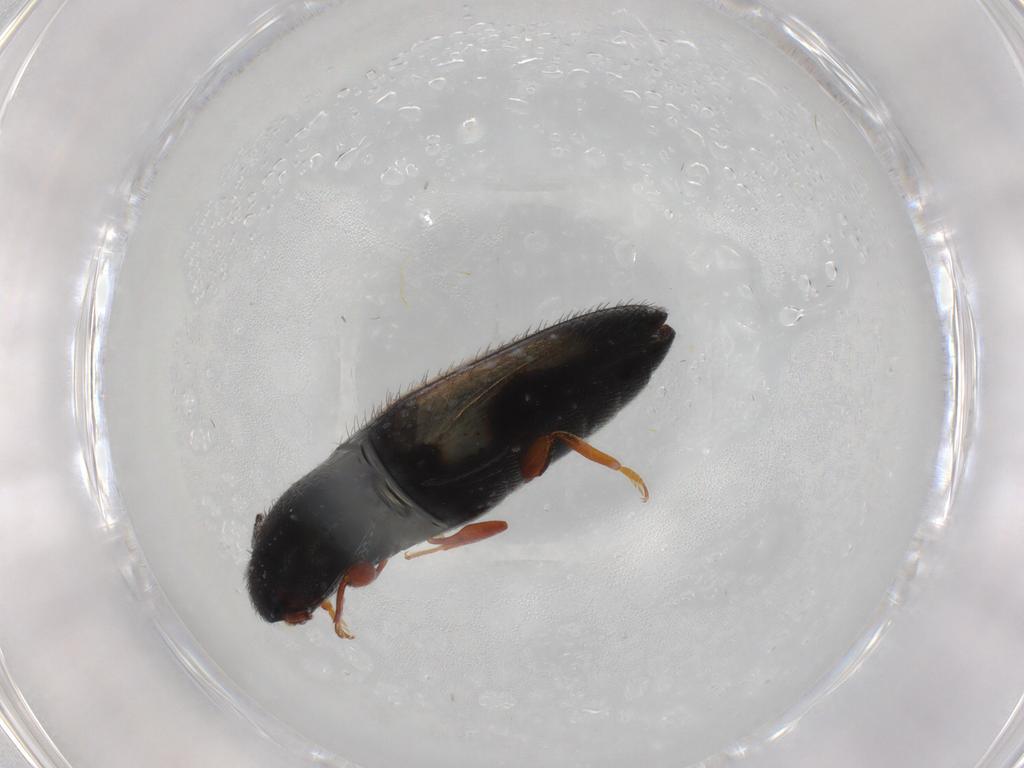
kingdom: Animalia
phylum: Arthropoda
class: Insecta
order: Coleoptera
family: Elateridae
